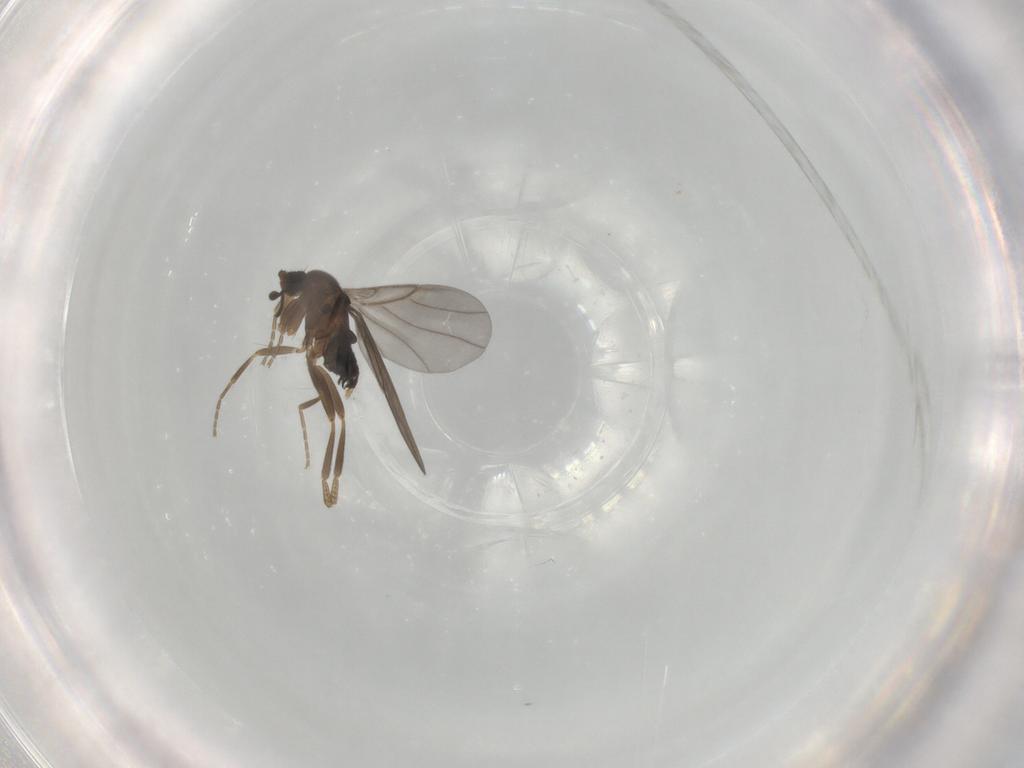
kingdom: Animalia
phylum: Arthropoda
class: Insecta
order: Diptera
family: Phoridae
